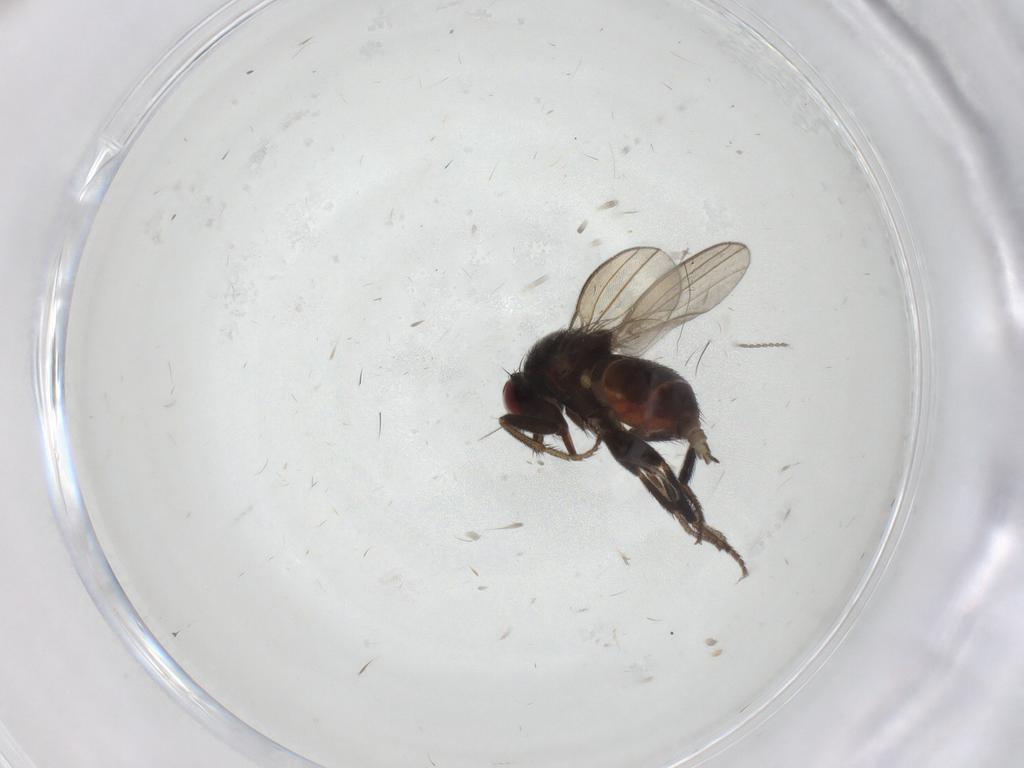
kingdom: Animalia
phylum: Arthropoda
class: Insecta
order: Diptera
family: Milichiidae
